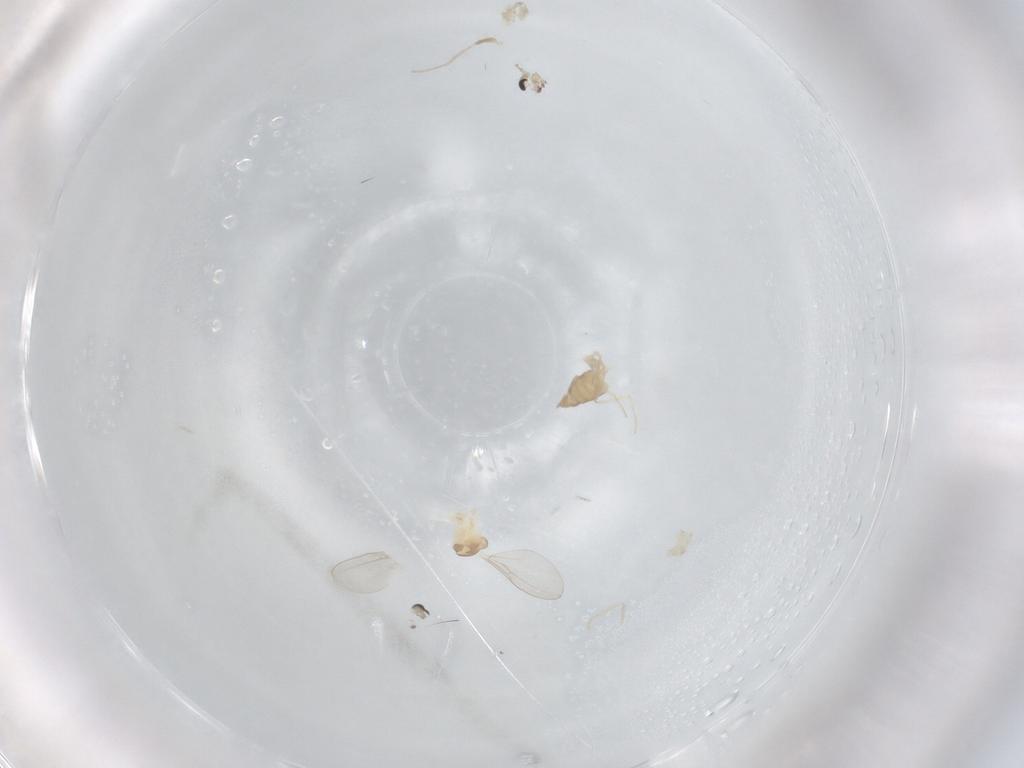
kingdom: Animalia
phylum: Arthropoda
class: Insecta
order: Diptera
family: Cecidomyiidae
